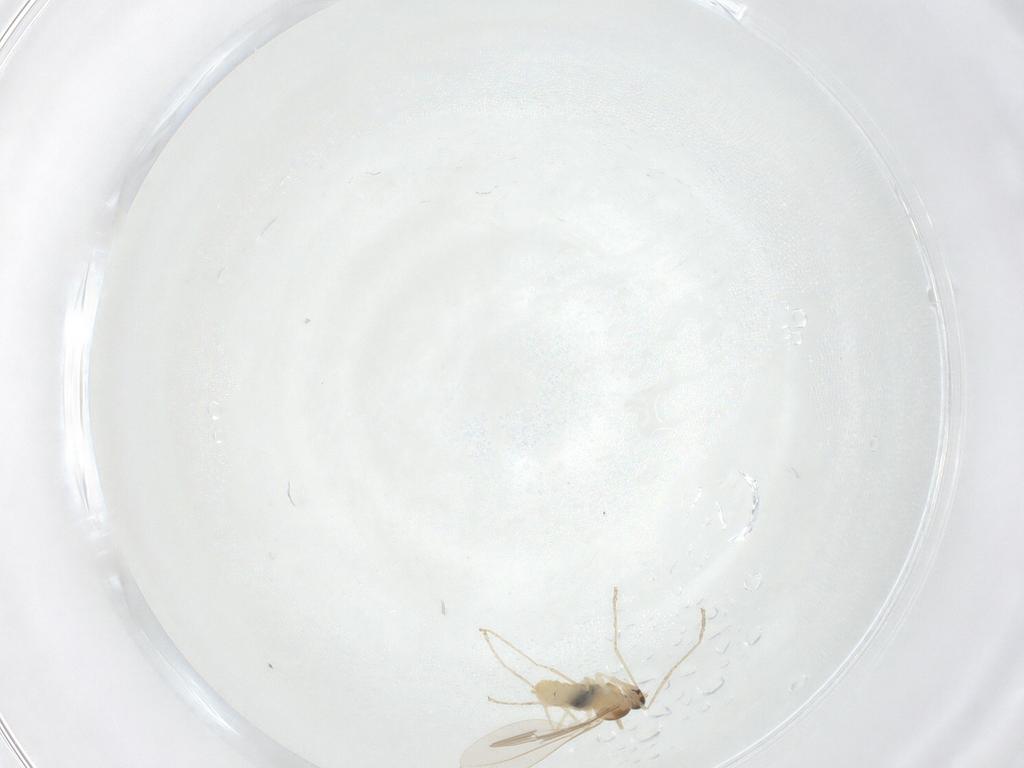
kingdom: Animalia
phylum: Arthropoda
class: Insecta
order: Diptera
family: Cecidomyiidae
